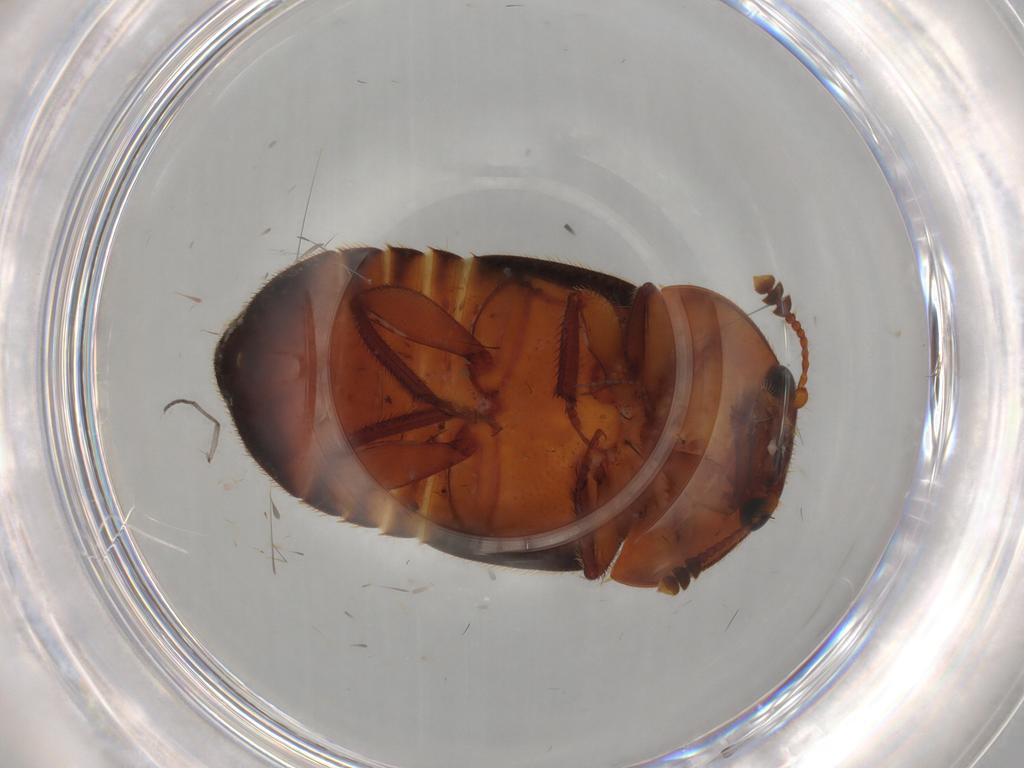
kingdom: Animalia
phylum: Arthropoda
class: Insecta
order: Coleoptera
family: Nitidulidae
